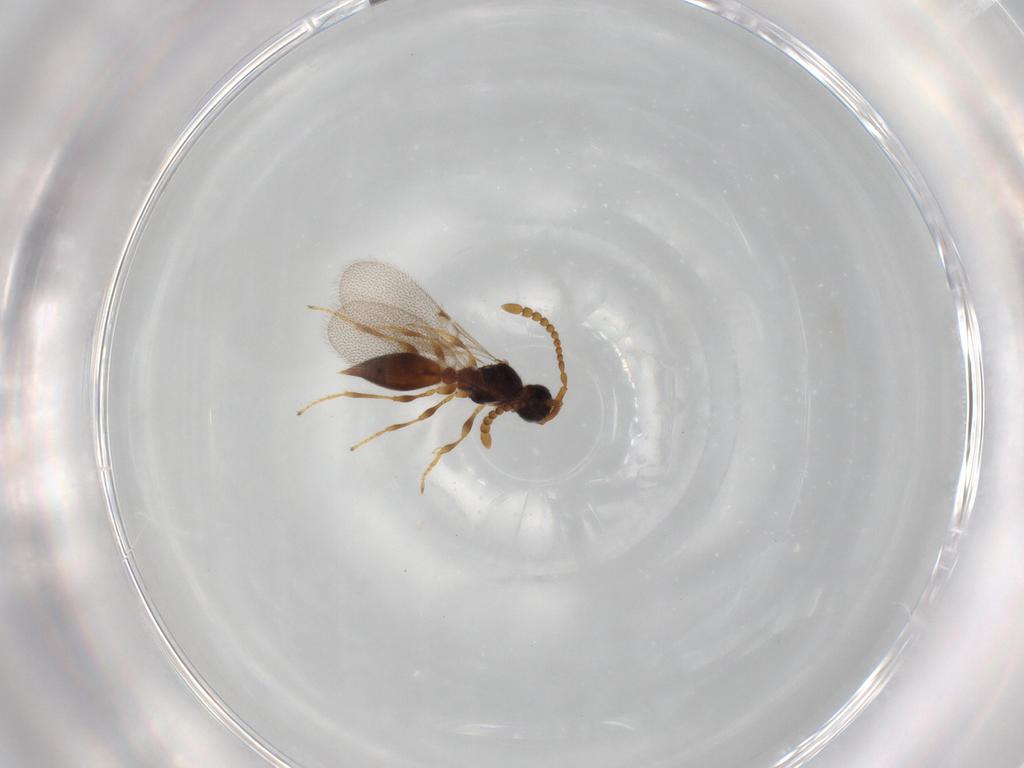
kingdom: Animalia
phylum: Arthropoda
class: Insecta
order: Hymenoptera
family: Diapriidae
